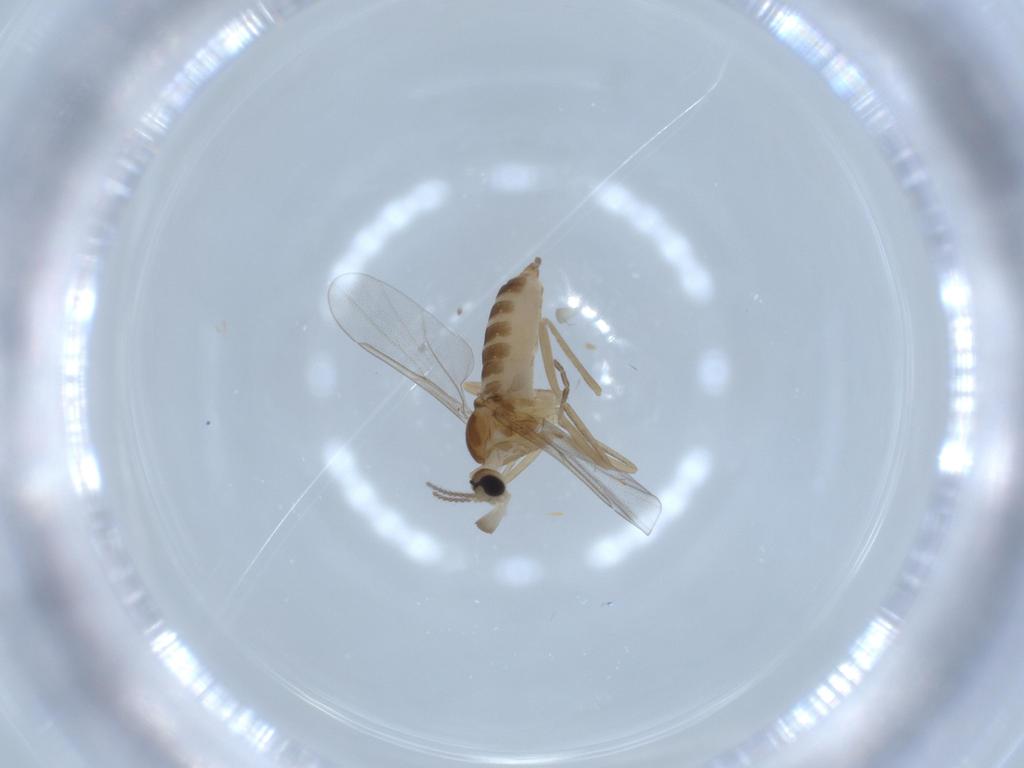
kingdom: Animalia
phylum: Arthropoda
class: Insecta
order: Diptera
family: Cecidomyiidae
